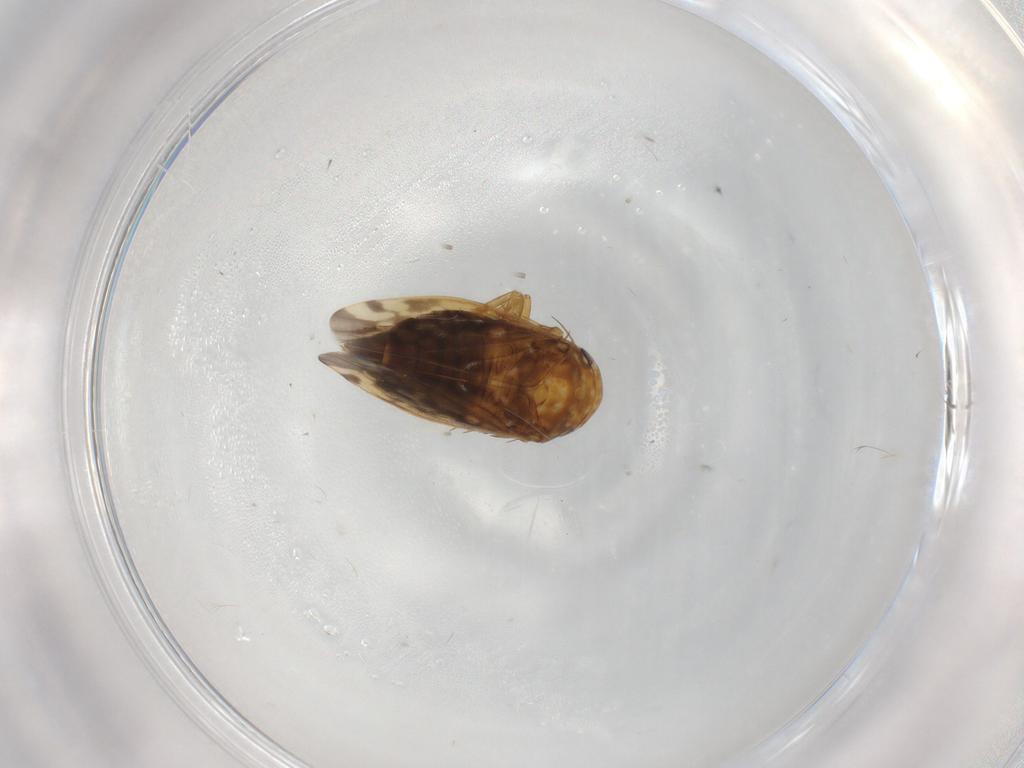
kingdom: Animalia
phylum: Arthropoda
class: Insecta
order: Hemiptera
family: Cicadellidae
